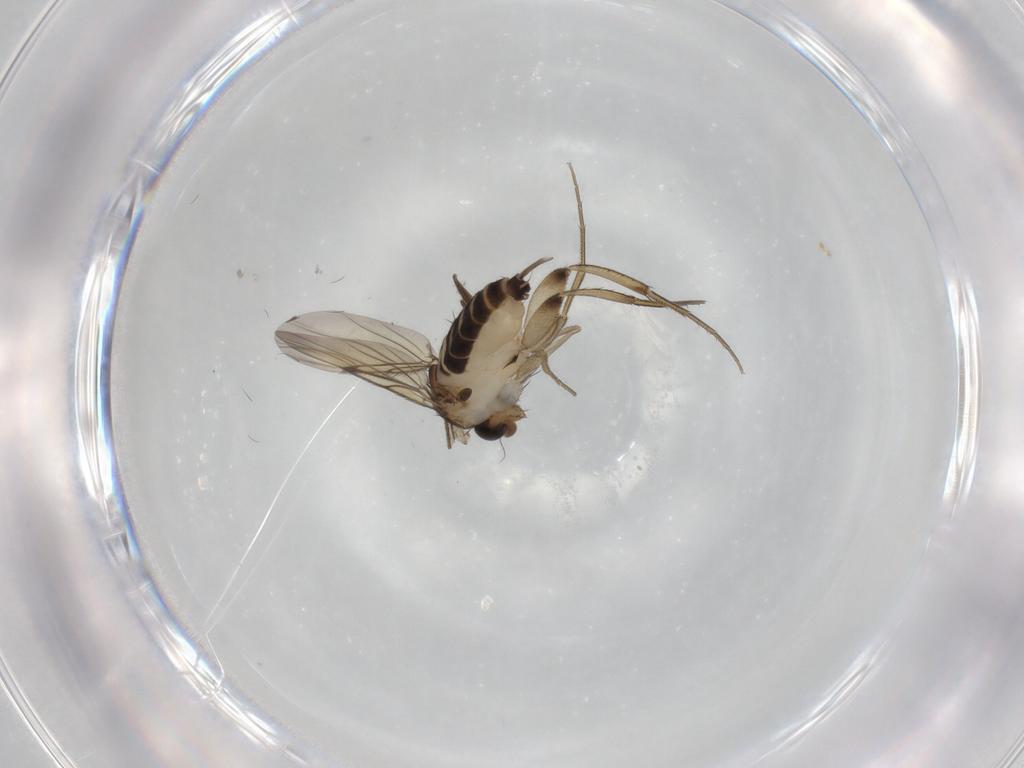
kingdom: Animalia
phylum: Arthropoda
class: Insecta
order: Diptera
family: Phoridae
